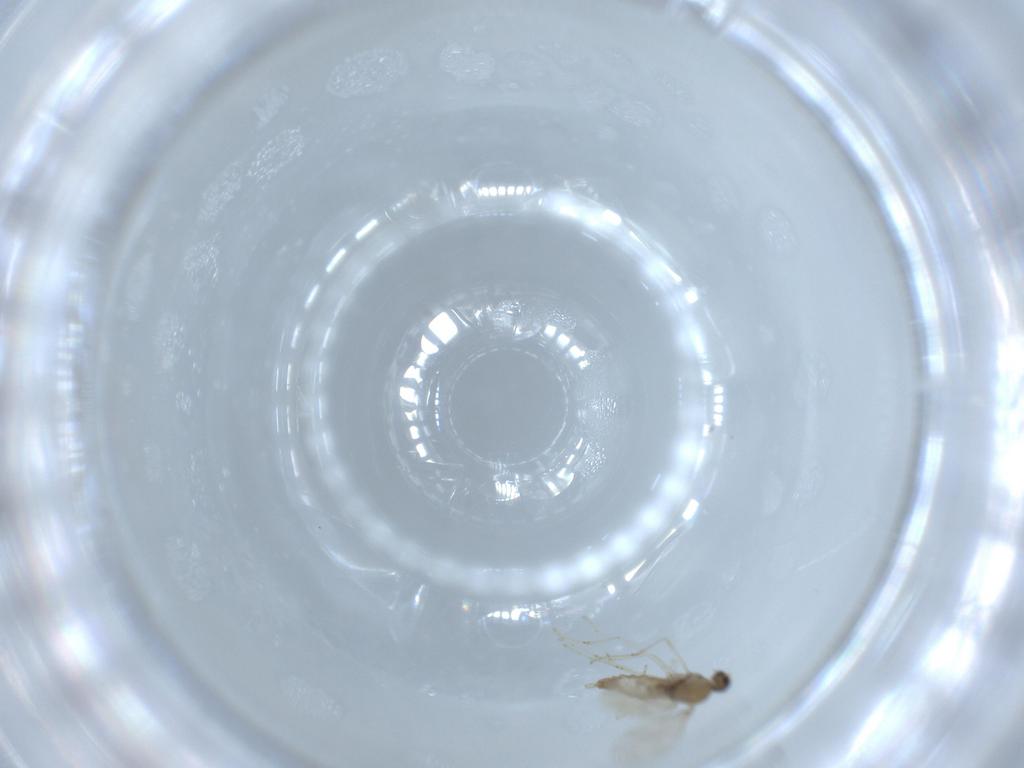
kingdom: Animalia
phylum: Arthropoda
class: Insecta
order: Diptera
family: Cecidomyiidae
